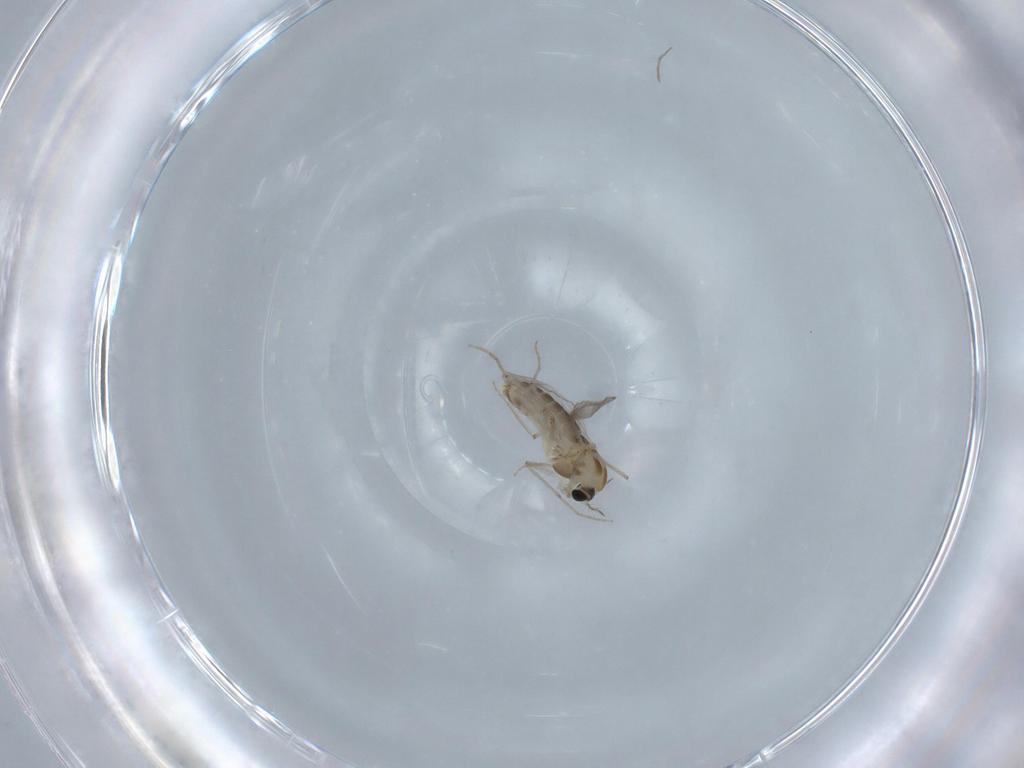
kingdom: Animalia
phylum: Arthropoda
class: Insecta
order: Diptera
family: Chironomidae
